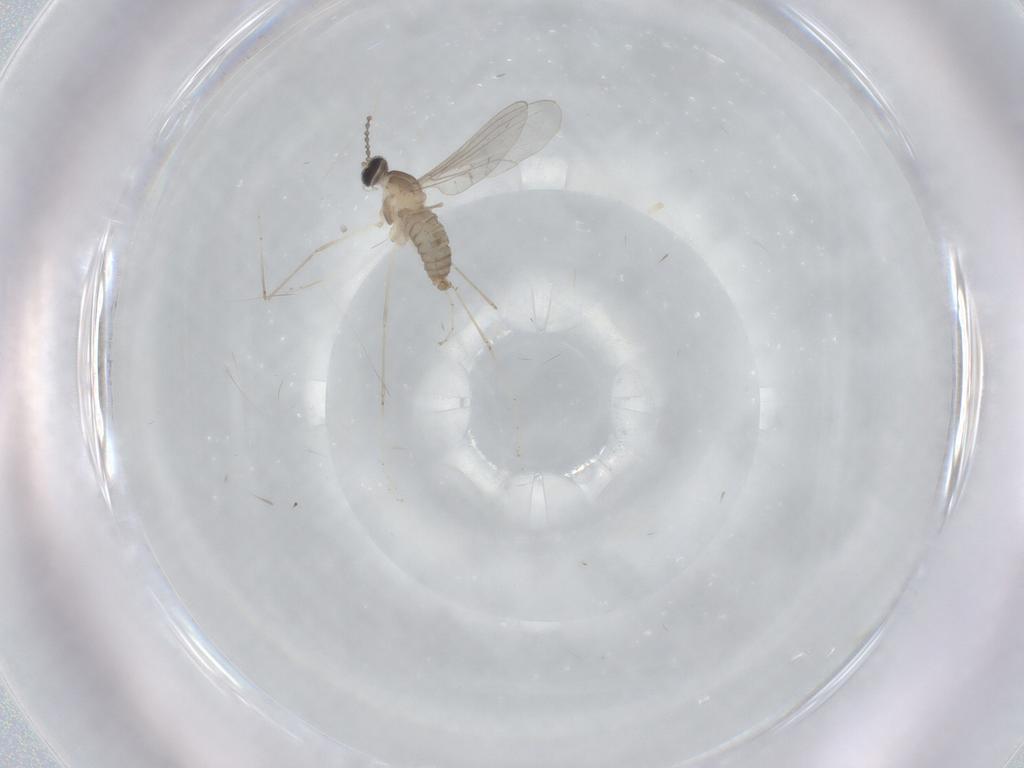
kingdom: Animalia
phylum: Arthropoda
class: Insecta
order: Diptera
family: Cecidomyiidae
